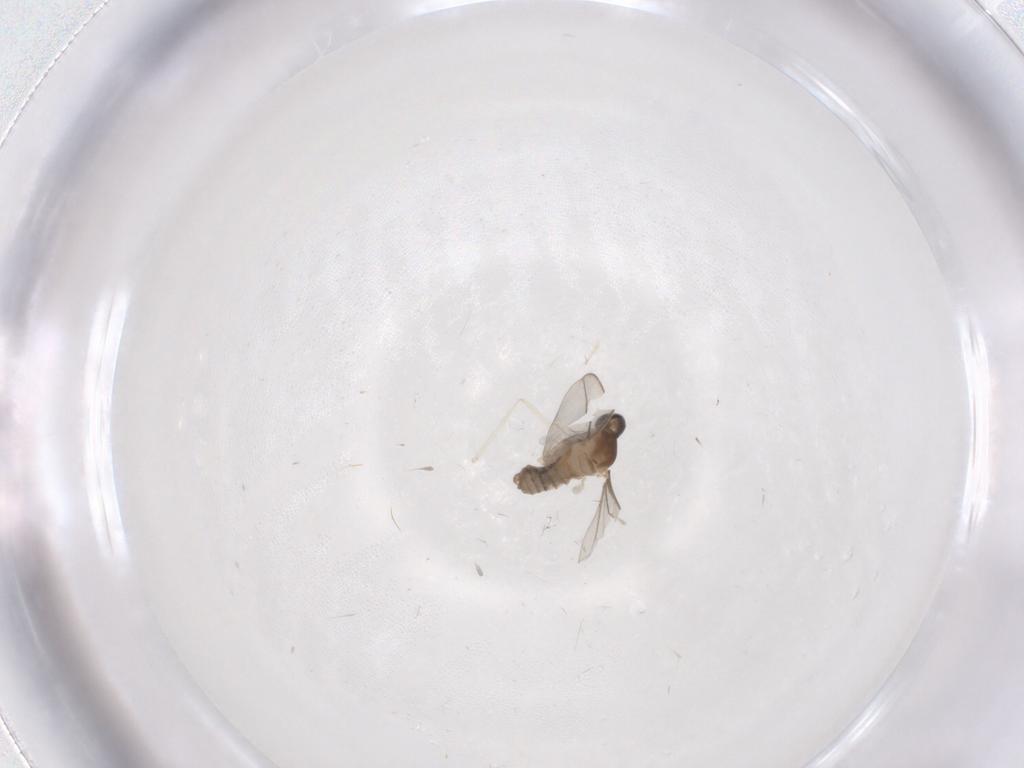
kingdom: Animalia
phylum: Arthropoda
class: Insecta
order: Diptera
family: Cecidomyiidae
